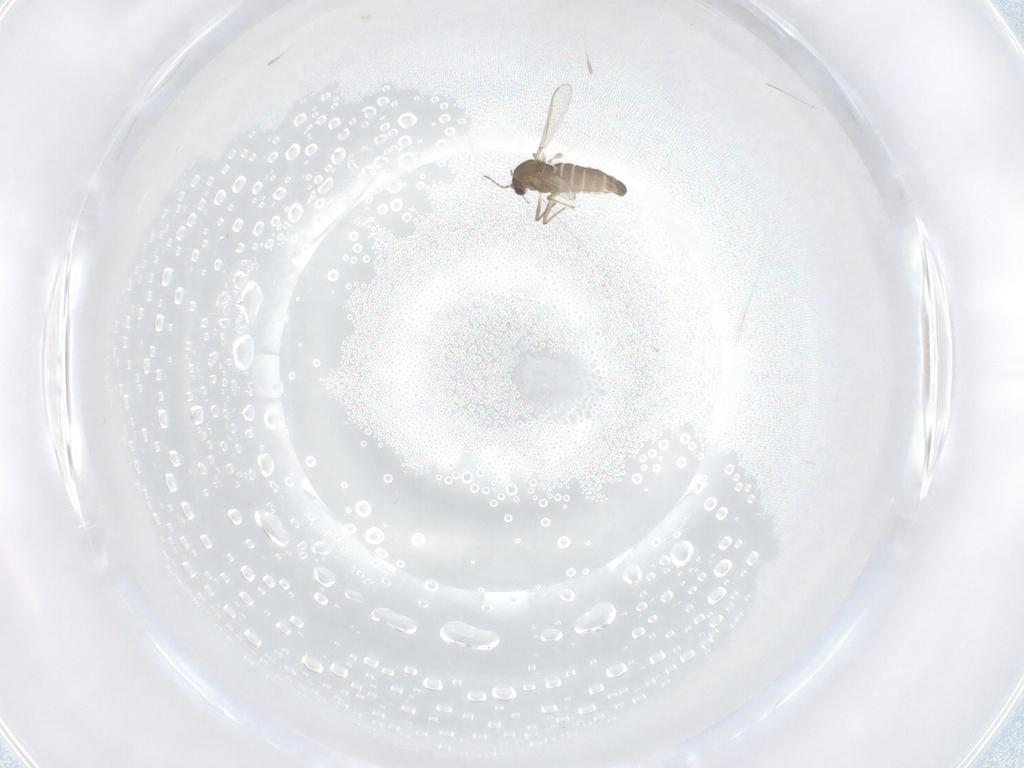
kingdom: Animalia
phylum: Arthropoda
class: Insecta
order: Diptera
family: Chironomidae
